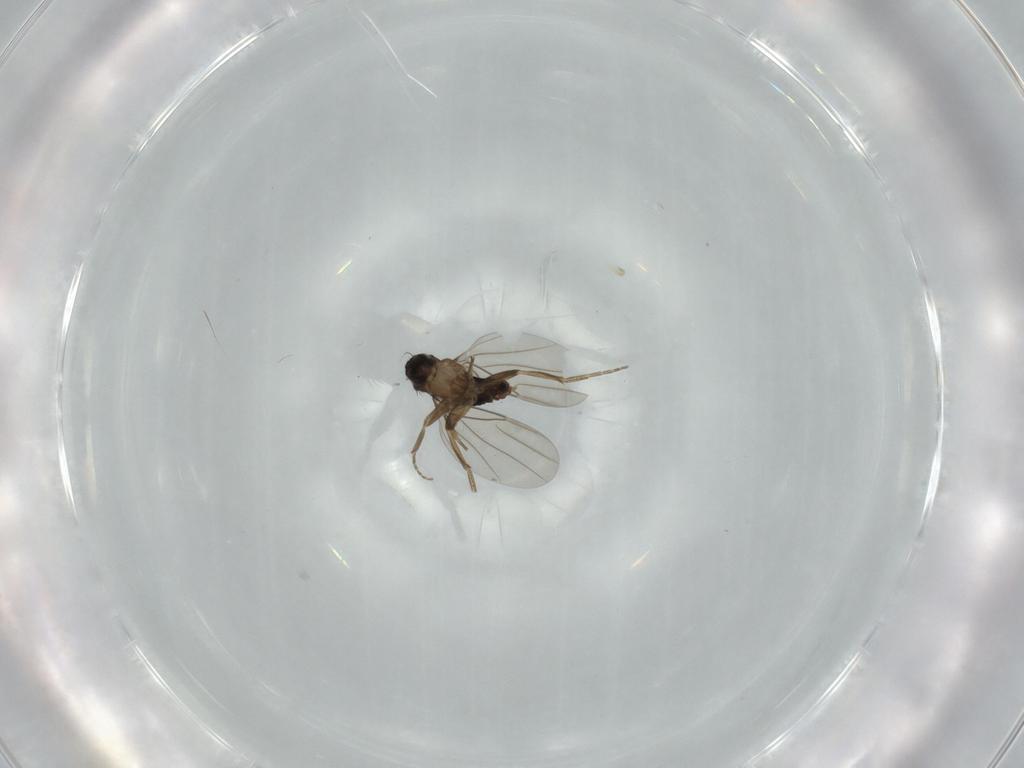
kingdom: Animalia
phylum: Arthropoda
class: Insecta
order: Diptera
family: Phoridae
